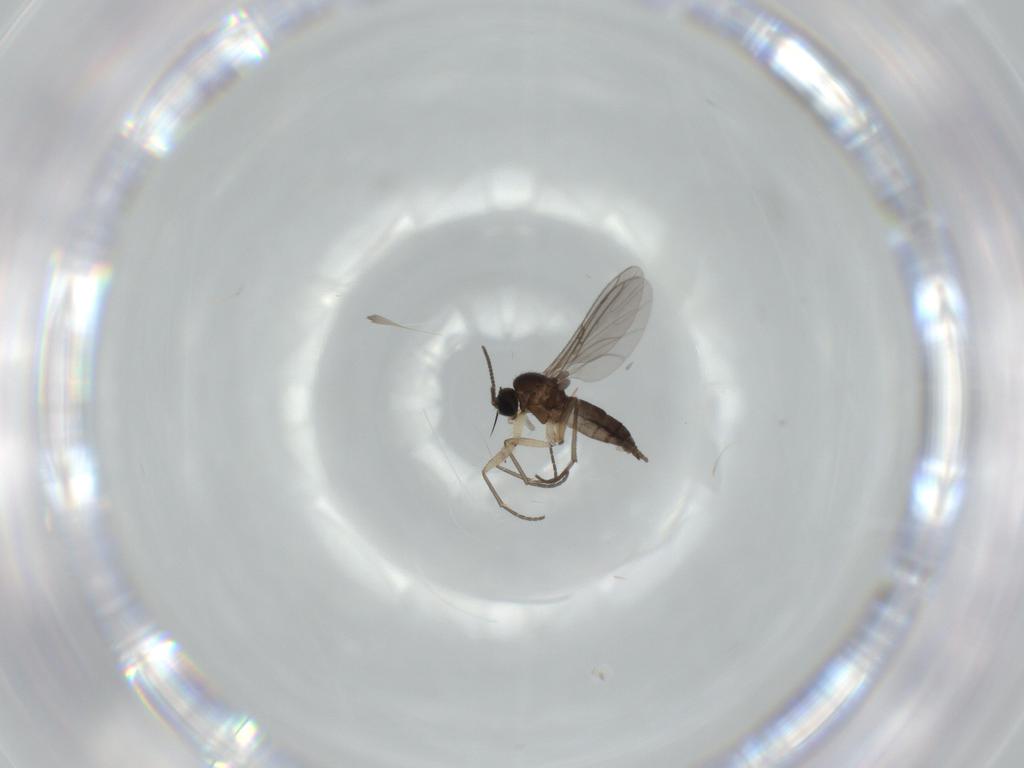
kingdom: Animalia
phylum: Arthropoda
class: Insecta
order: Diptera
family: Sciaridae
